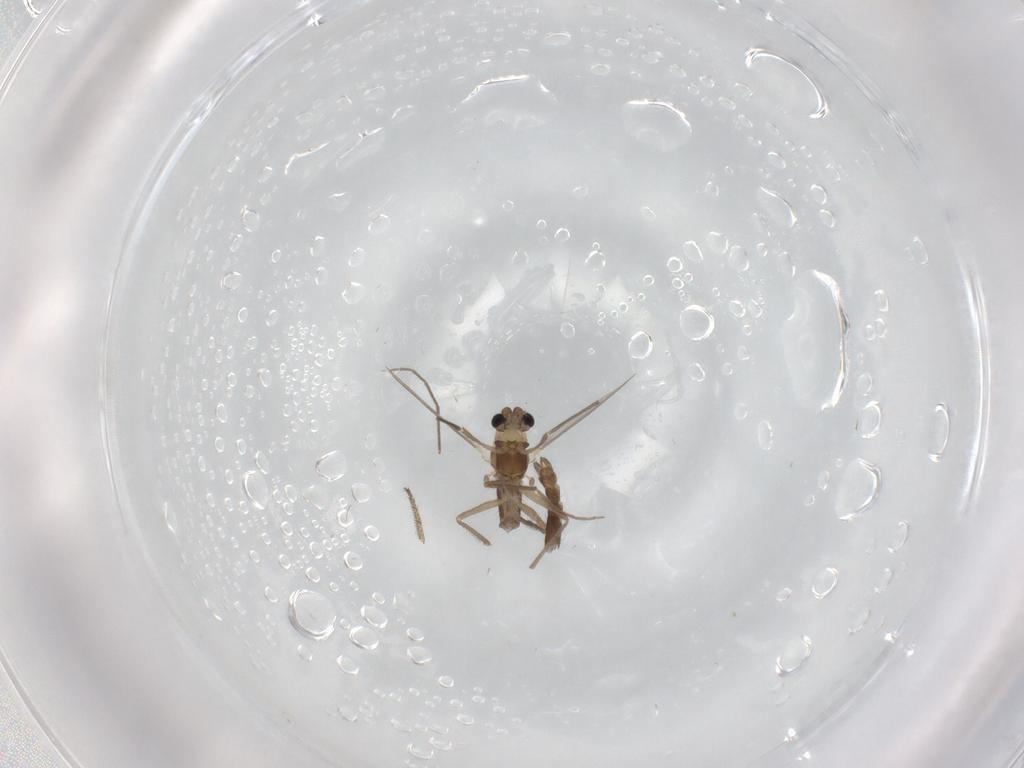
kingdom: Animalia
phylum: Arthropoda
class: Insecta
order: Diptera
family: Chironomidae
